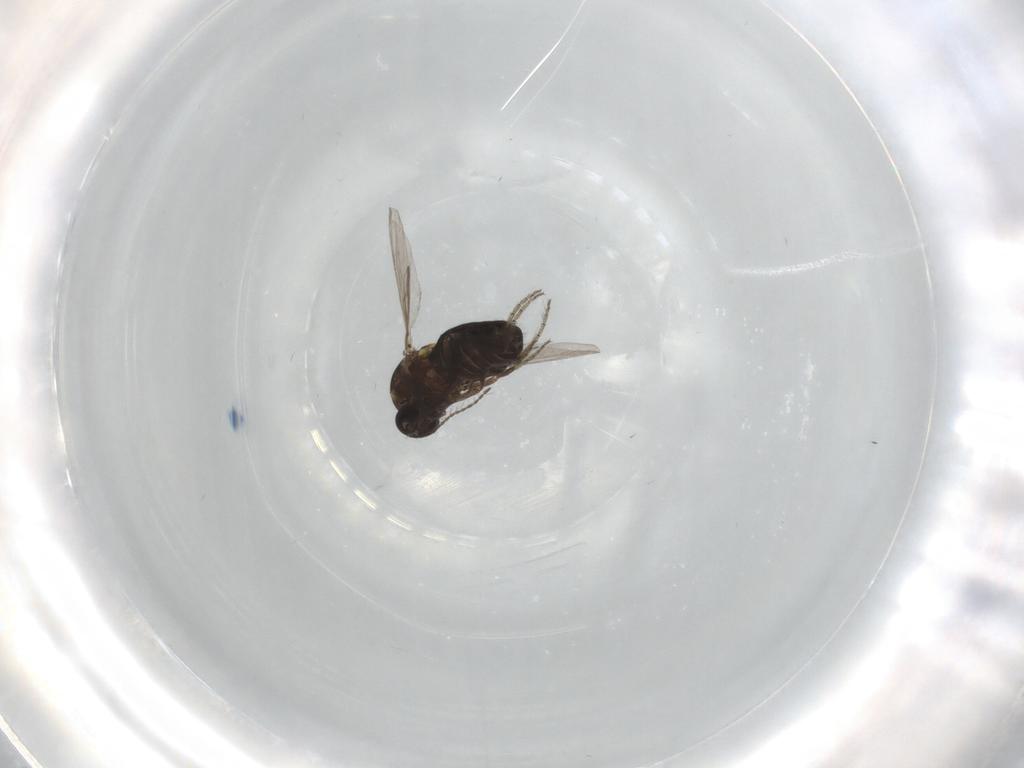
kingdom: Animalia
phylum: Arthropoda
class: Insecta
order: Diptera
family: Ceratopogonidae
